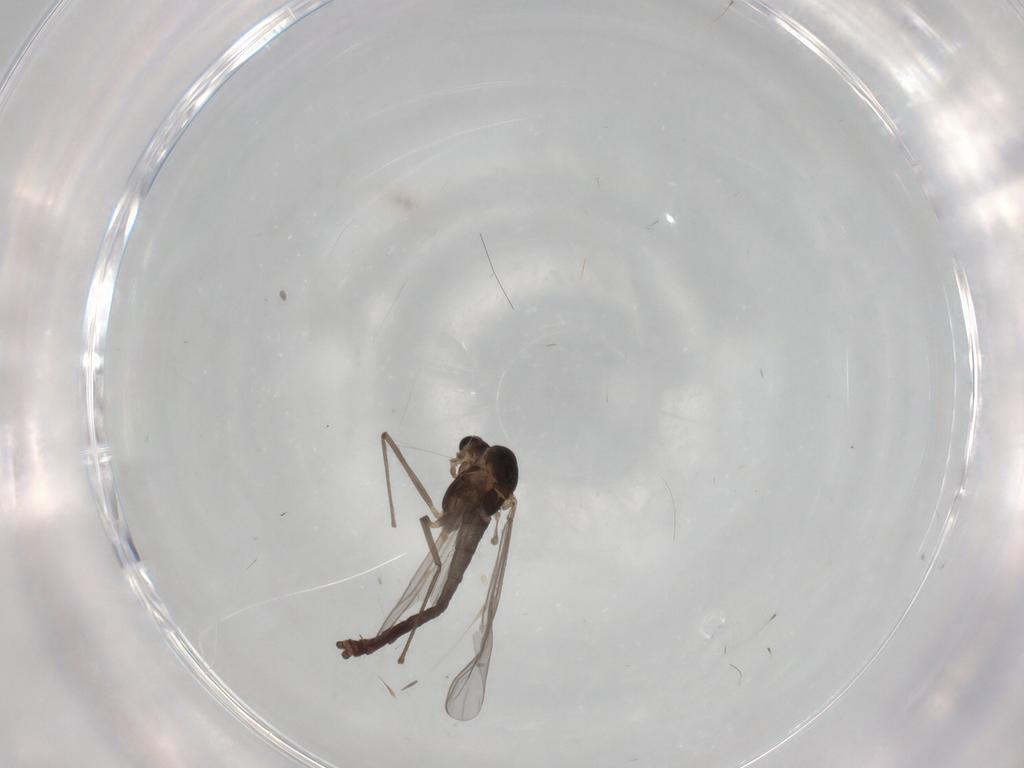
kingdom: Animalia
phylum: Arthropoda
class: Insecta
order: Diptera
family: Chironomidae
